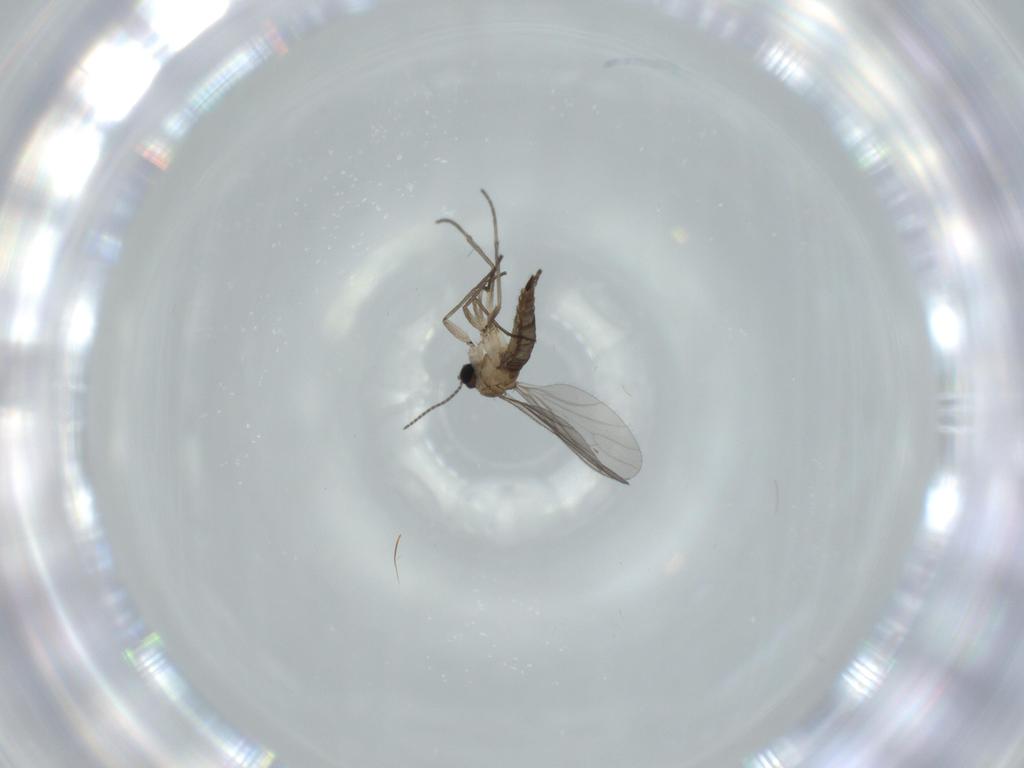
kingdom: Animalia
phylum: Arthropoda
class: Insecta
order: Diptera
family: Sciaridae
